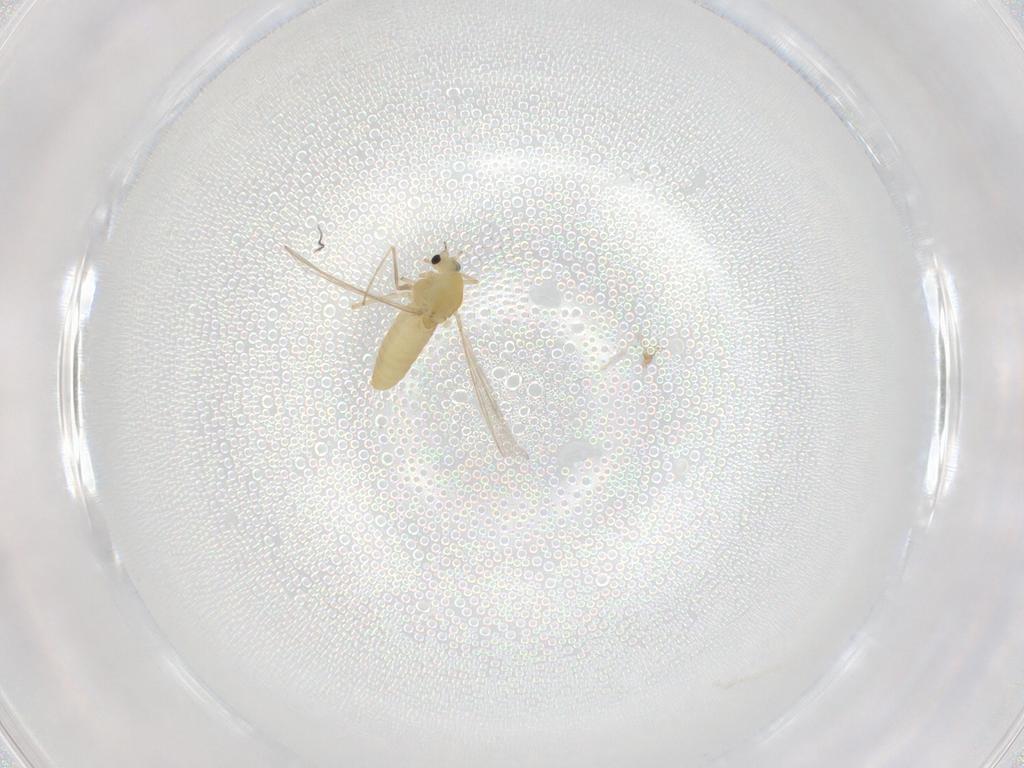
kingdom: Animalia
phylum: Arthropoda
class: Insecta
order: Diptera
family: Chironomidae
